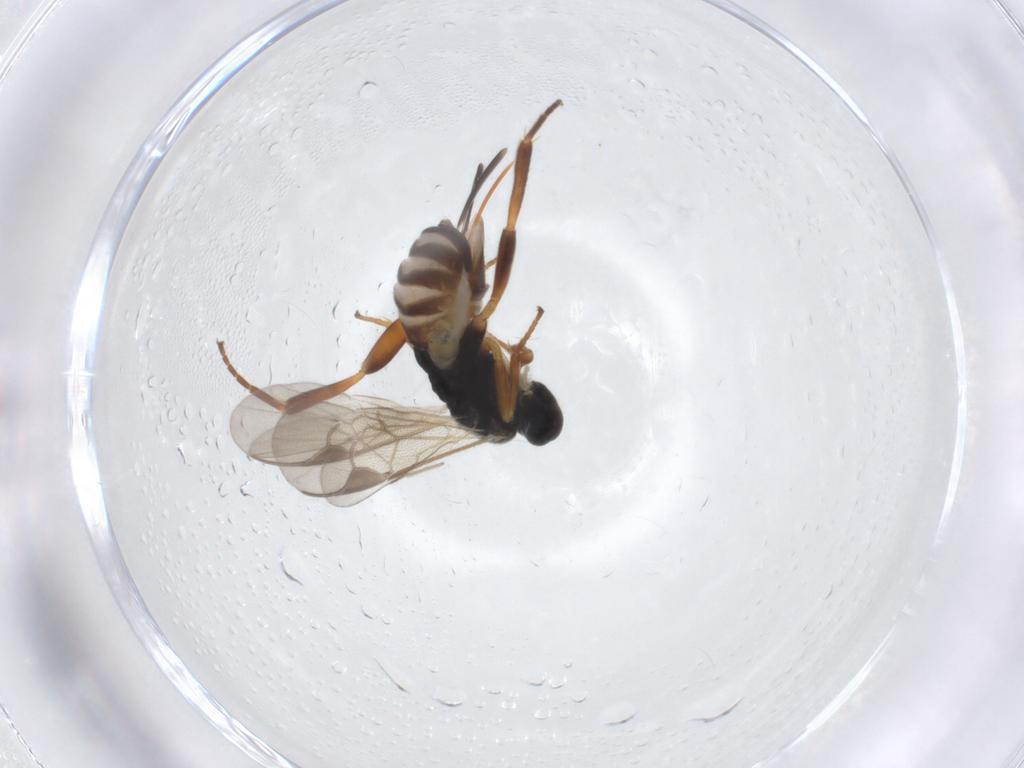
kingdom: Animalia
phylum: Arthropoda
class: Insecta
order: Hymenoptera
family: Braconidae
